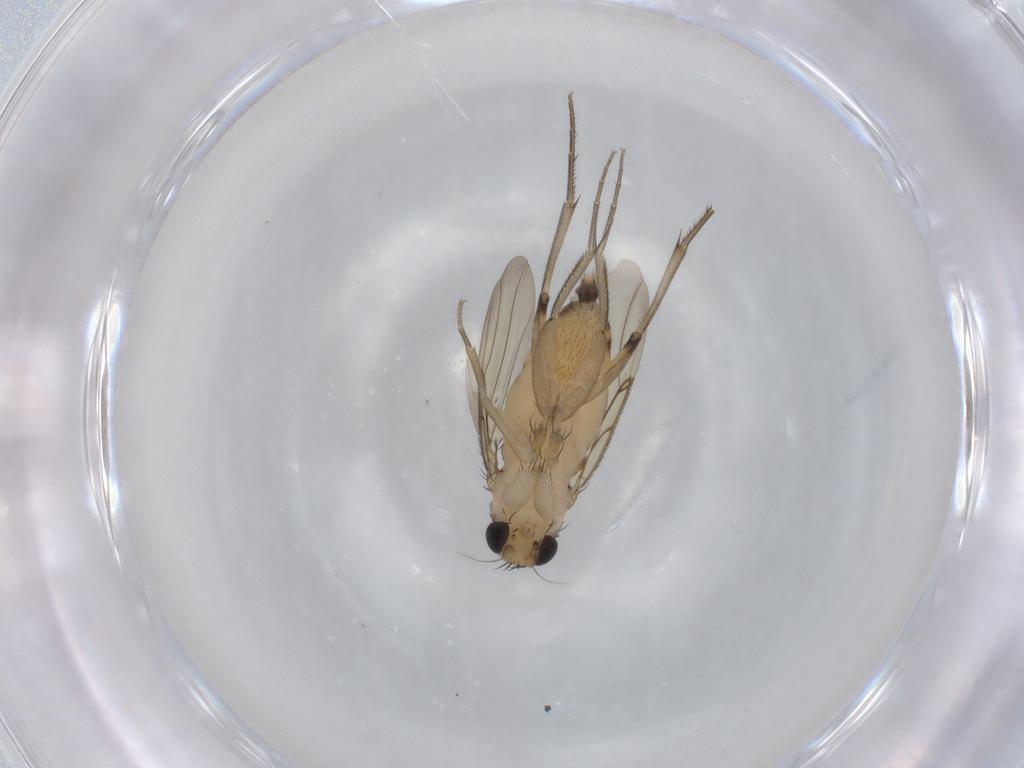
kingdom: Animalia
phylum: Arthropoda
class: Insecta
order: Diptera
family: Phoridae
